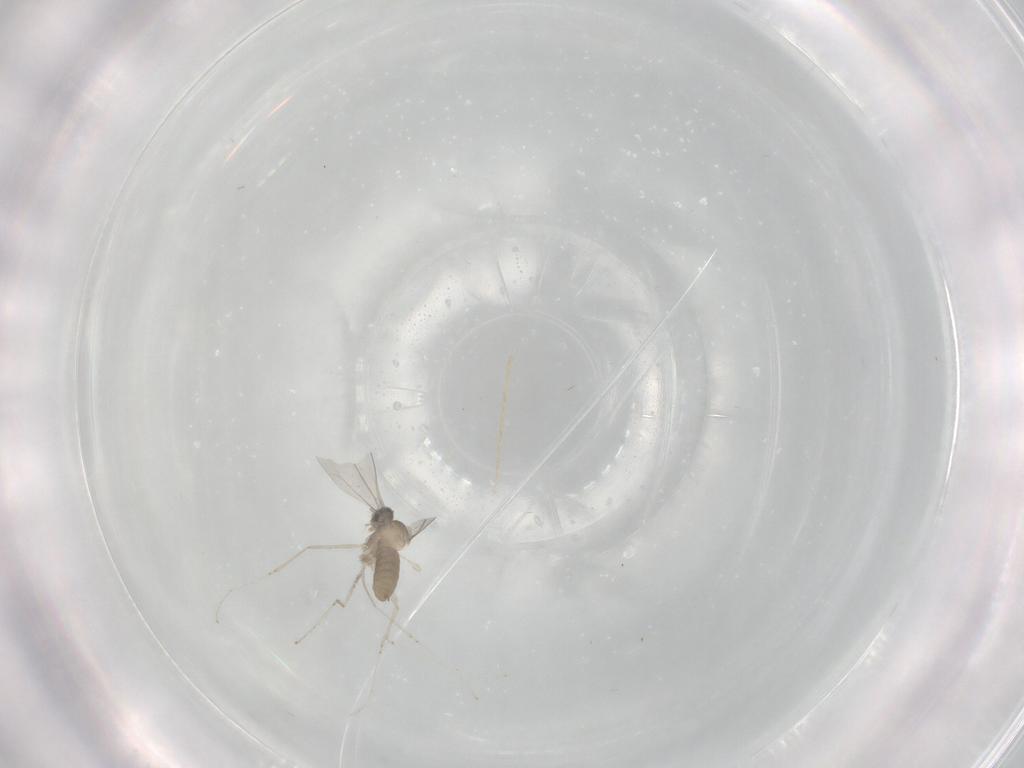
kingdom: Animalia
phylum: Arthropoda
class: Insecta
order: Diptera
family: Cecidomyiidae
